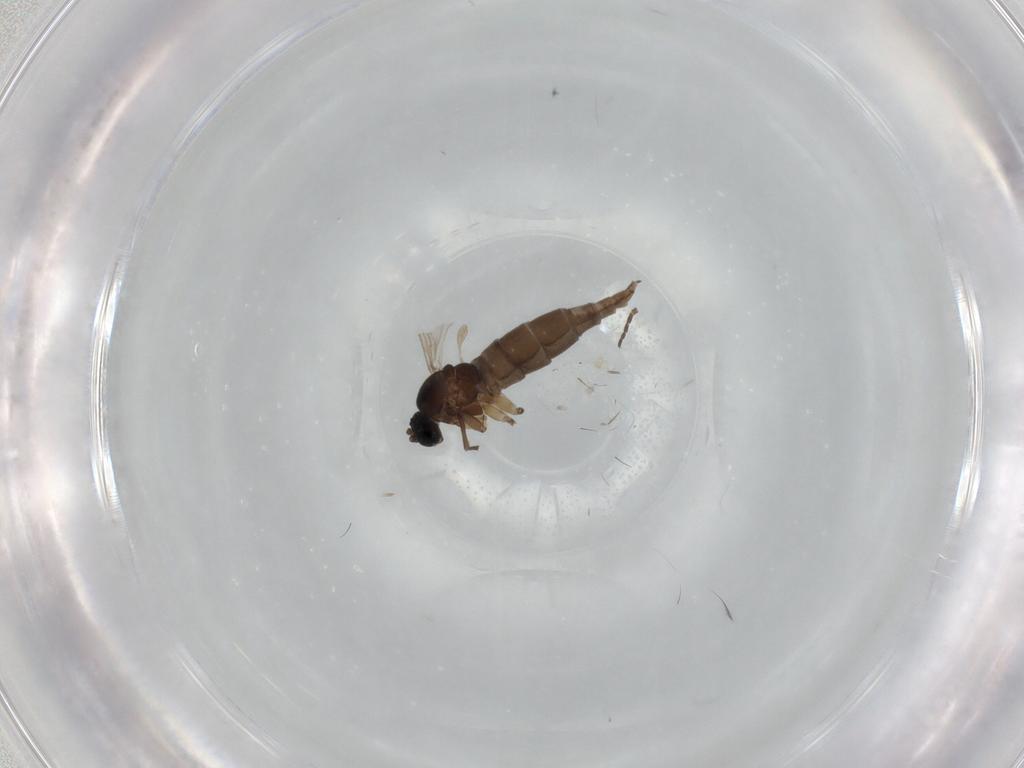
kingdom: Animalia
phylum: Arthropoda
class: Insecta
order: Diptera
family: Sciaridae
